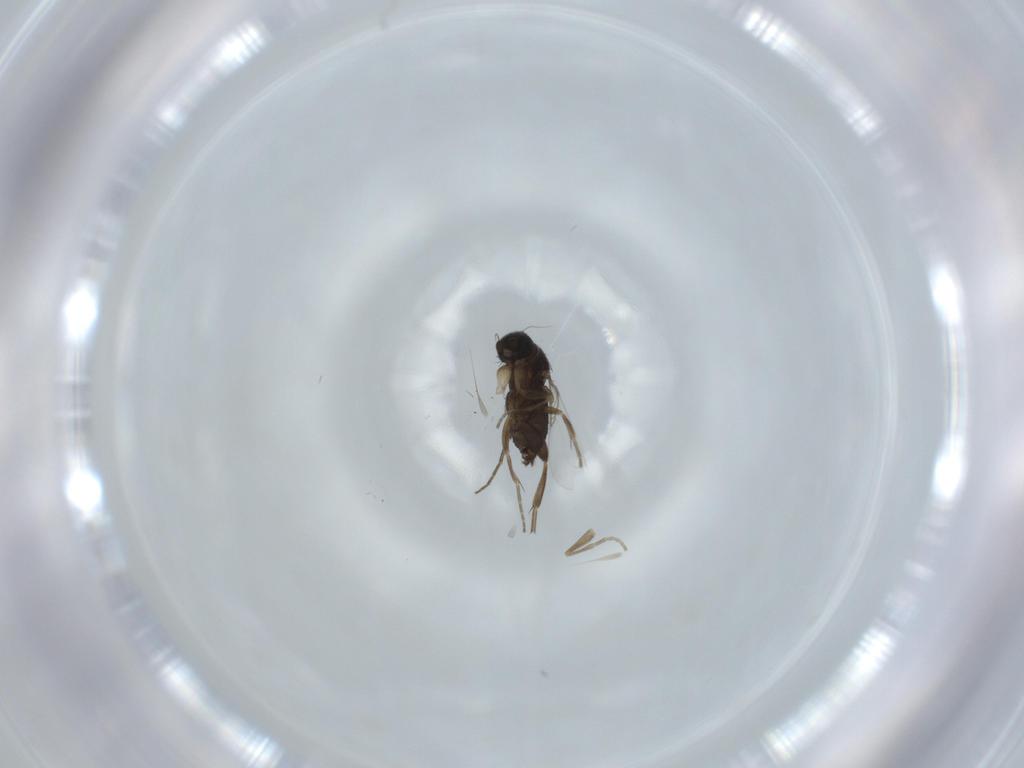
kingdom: Animalia
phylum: Arthropoda
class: Insecta
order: Diptera
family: Phoridae
